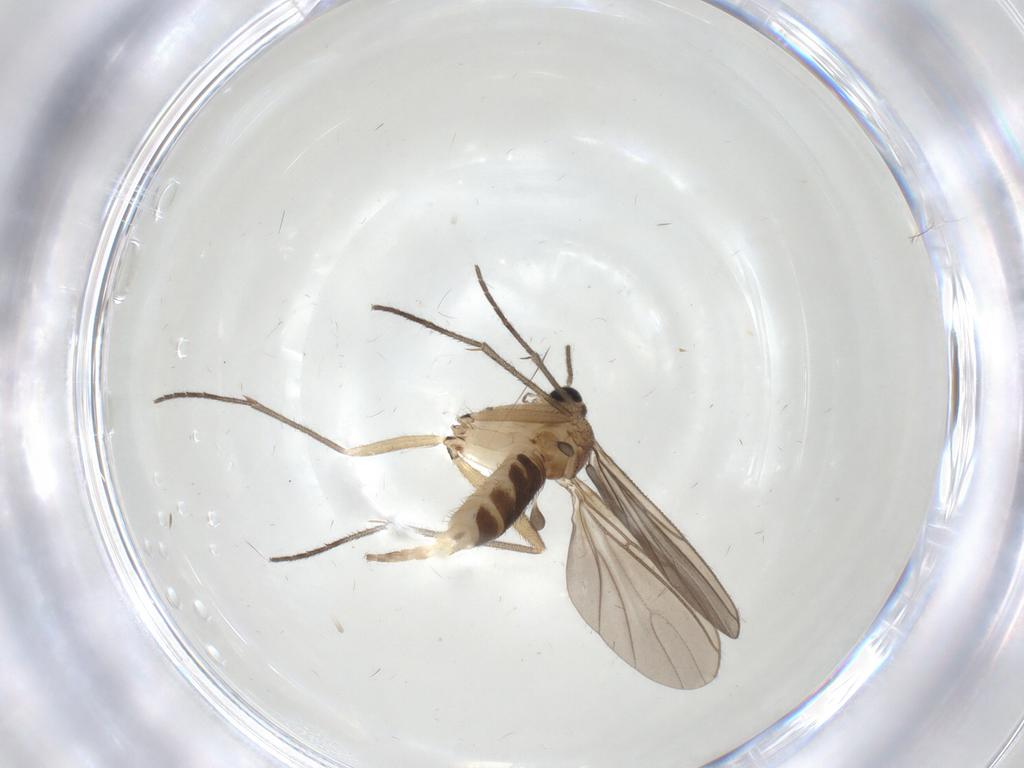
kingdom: Animalia
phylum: Arthropoda
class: Insecta
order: Diptera
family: Sciaridae
